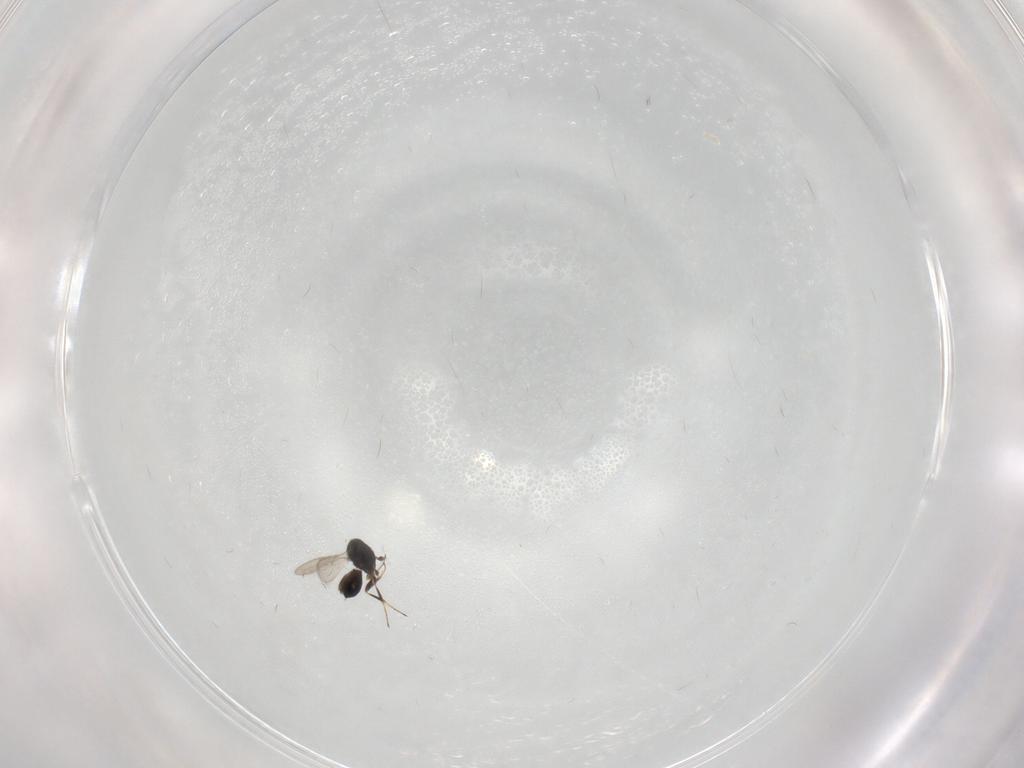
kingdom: Animalia
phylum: Arthropoda
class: Insecta
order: Hymenoptera
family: Scelionidae
